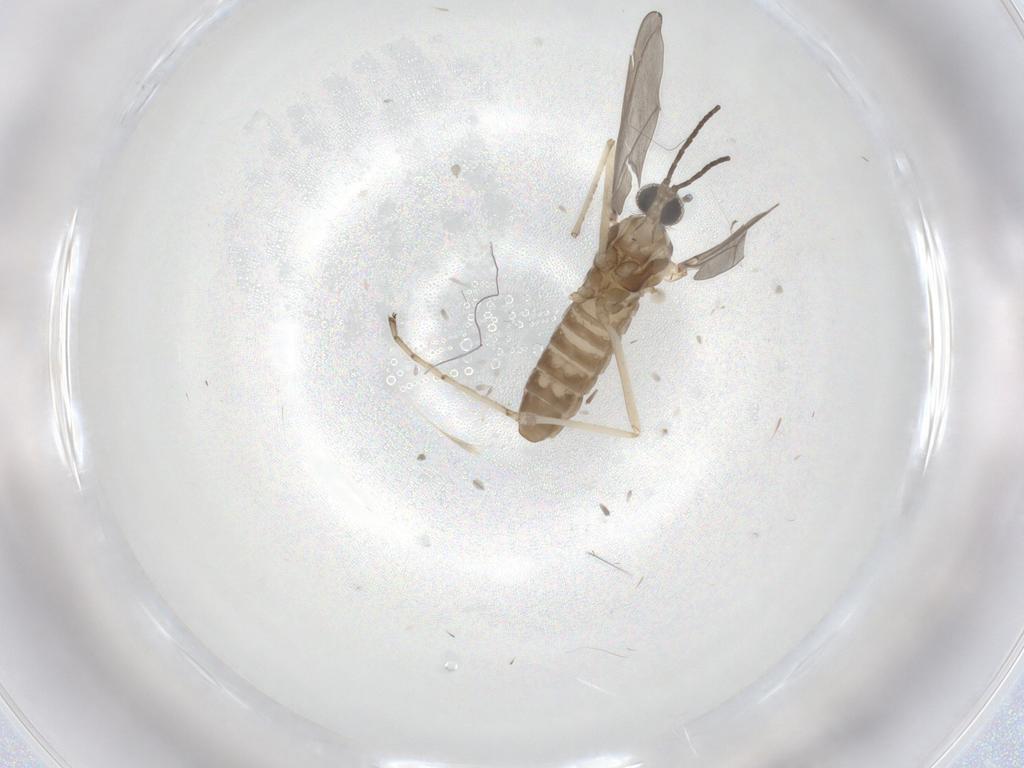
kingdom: Animalia
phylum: Arthropoda
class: Insecta
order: Diptera
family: Cecidomyiidae
